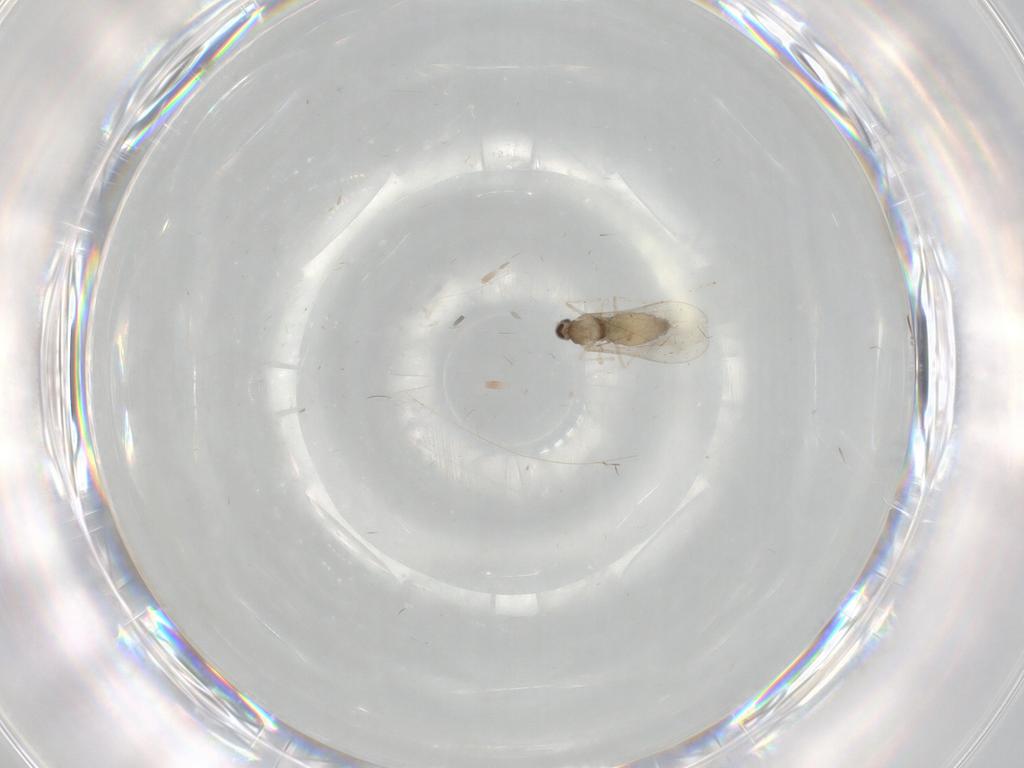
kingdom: Animalia
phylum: Arthropoda
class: Insecta
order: Diptera
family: Cecidomyiidae
